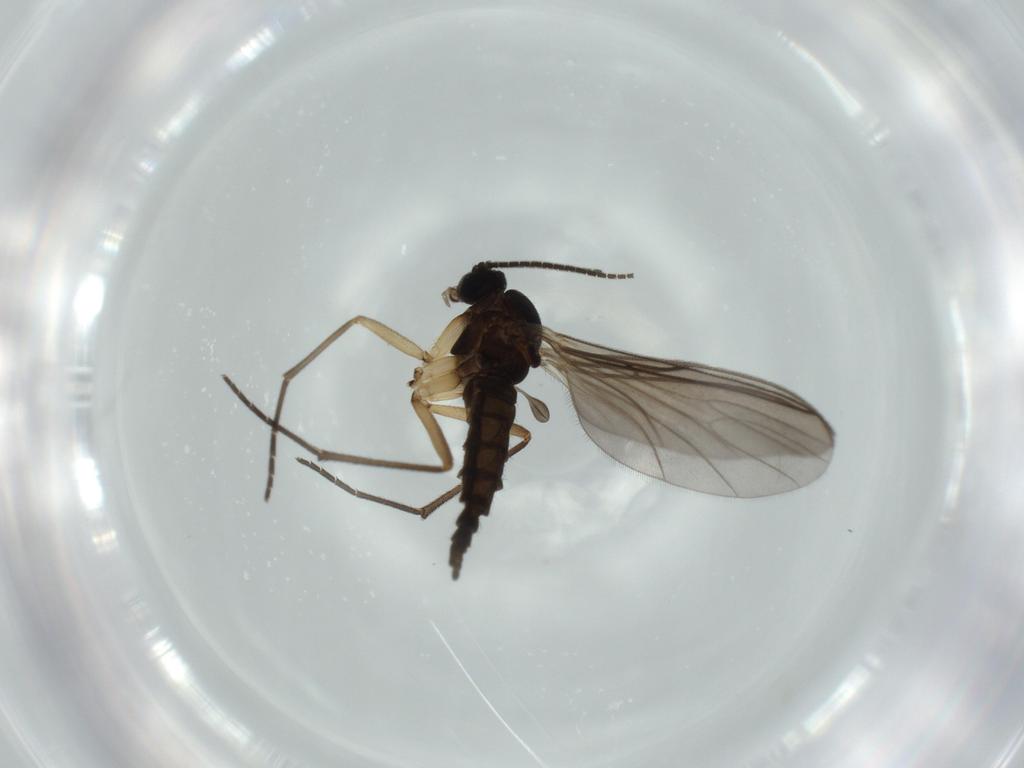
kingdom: Animalia
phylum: Arthropoda
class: Insecta
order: Diptera
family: Sciaridae
